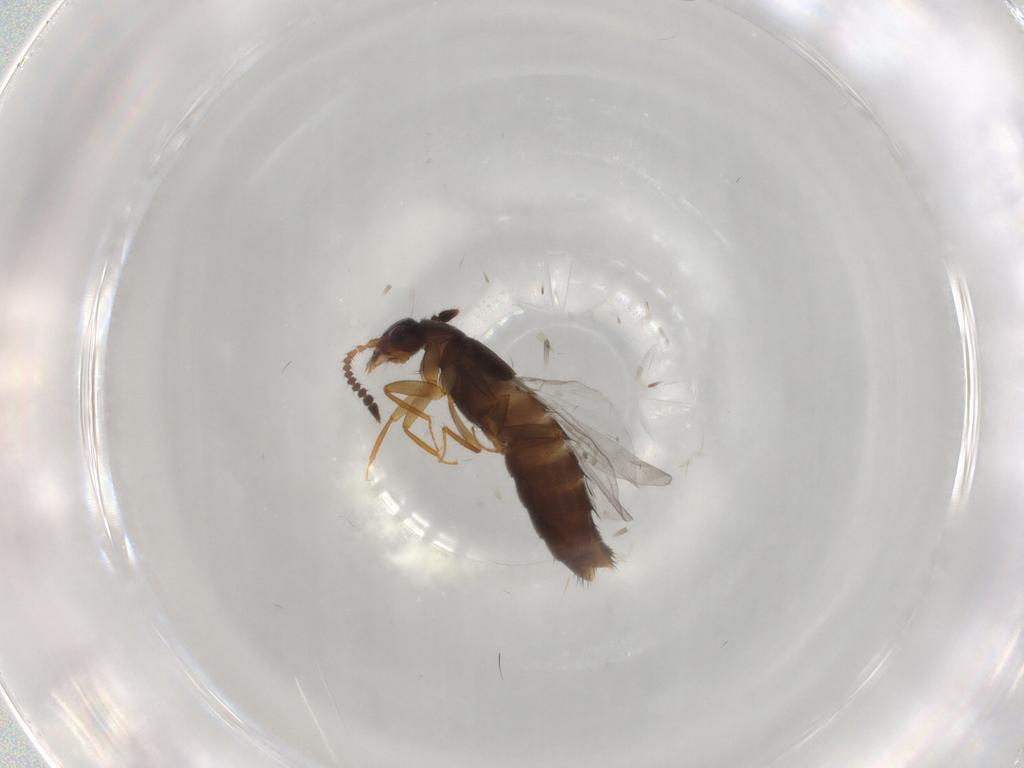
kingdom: Animalia
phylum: Arthropoda
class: Insecta
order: Coleoptera
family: Staphylinidae
